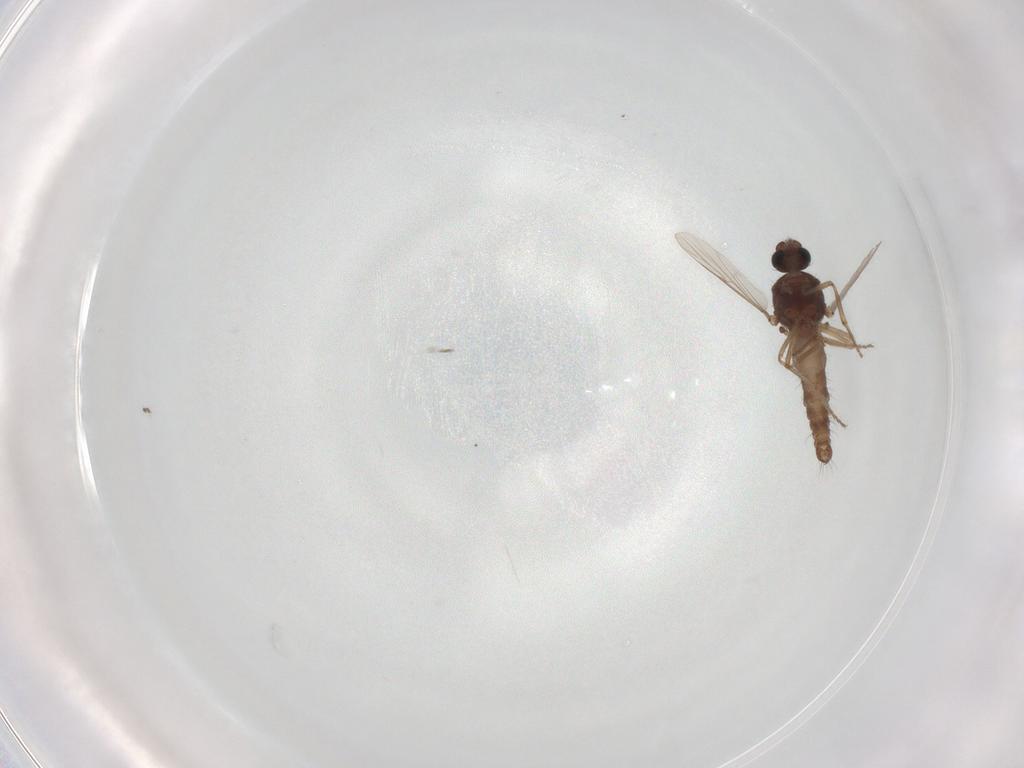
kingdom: Animalia
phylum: Arthropoda
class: Insecta
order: Diptera
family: Ceratopogonidae
